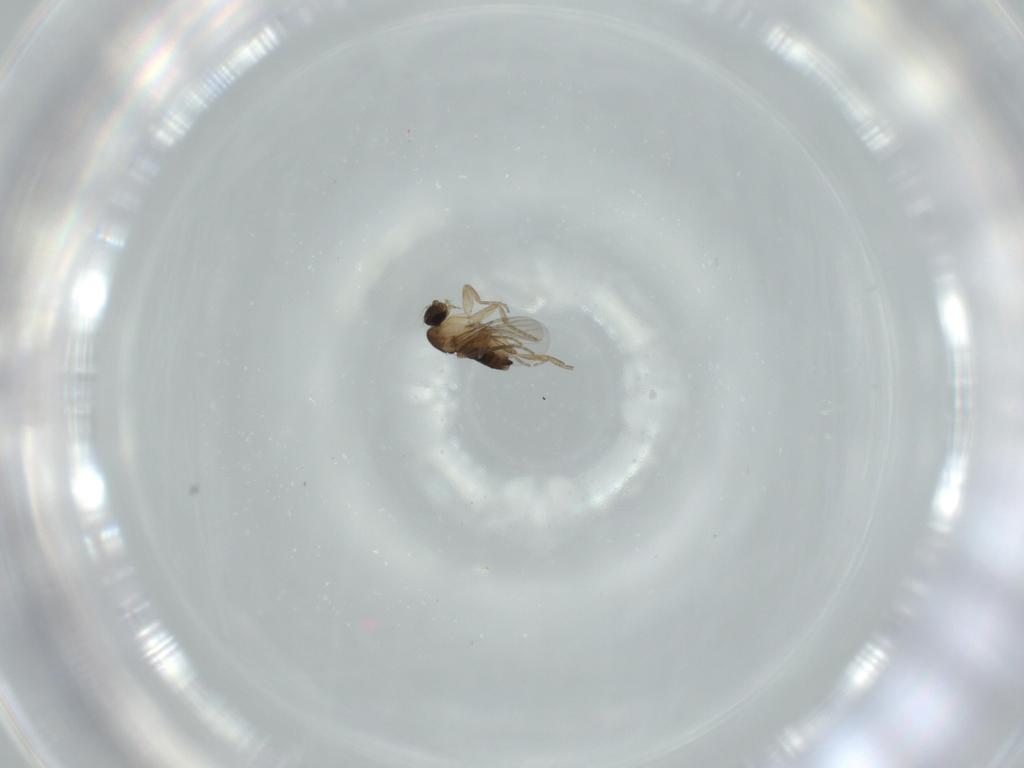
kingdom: Animalia
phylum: Arthropoda
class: Insecta
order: Diptera
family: Phoridae
